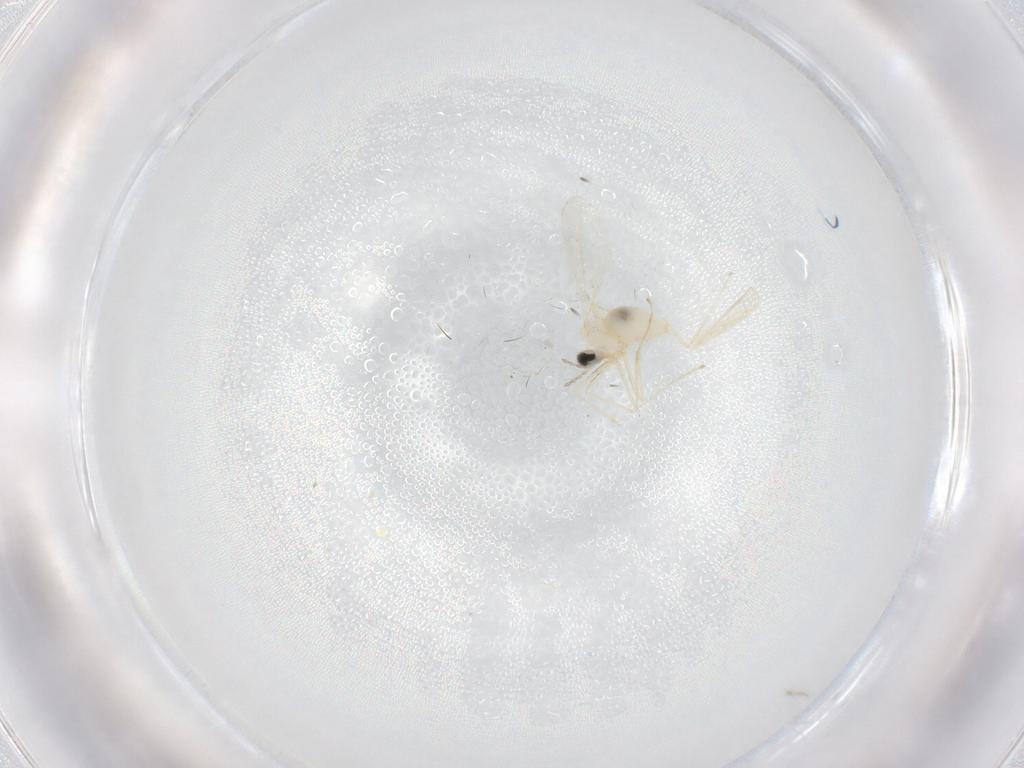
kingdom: Animalia
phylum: Arthropoda
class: Insecta
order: Diptera
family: Cecidomyiidae
